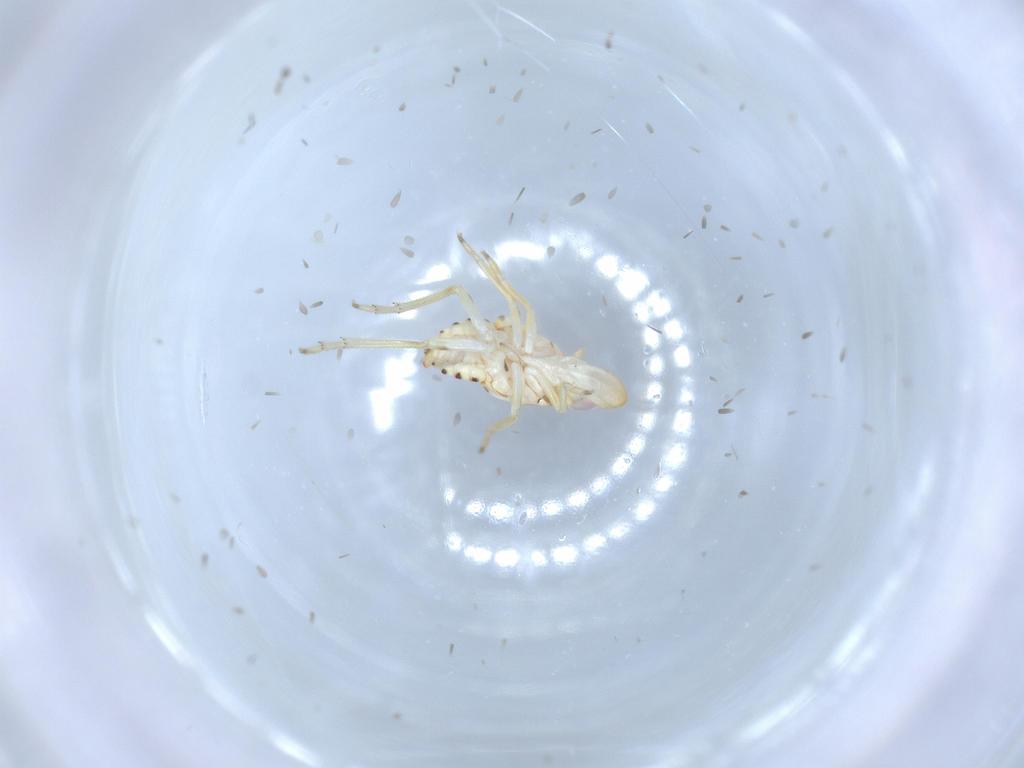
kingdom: Animalia
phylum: Arthropoda
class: Insecta
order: Hemiptera
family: Tropiduchidae
